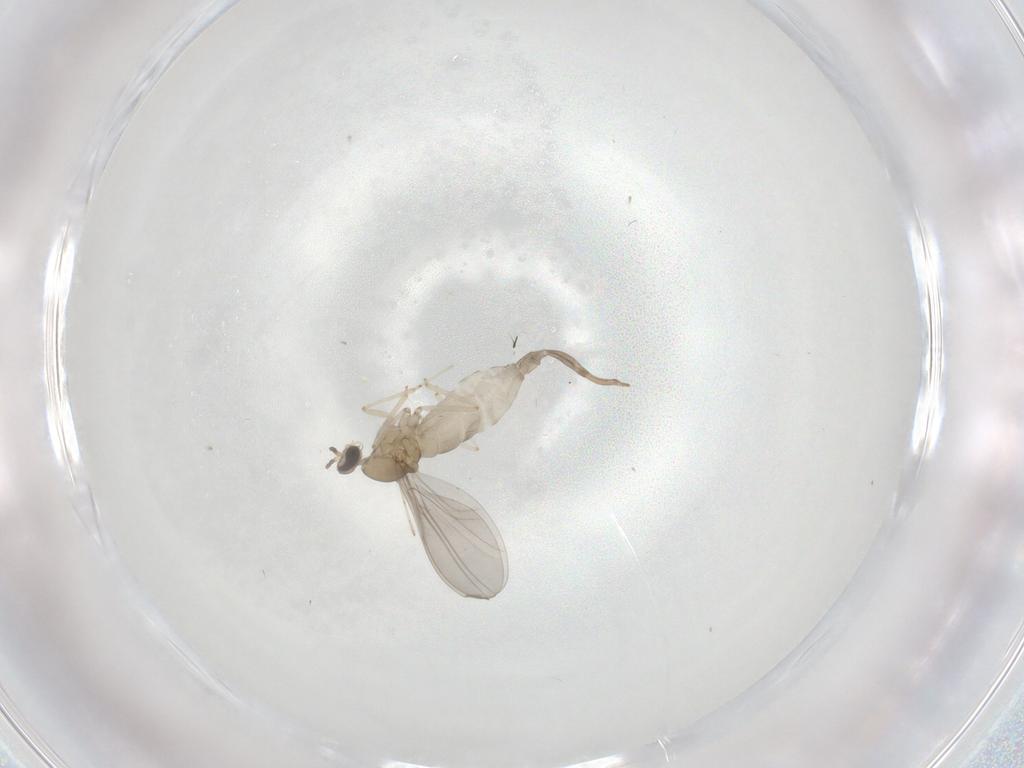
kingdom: Animalia
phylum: Arthropoda
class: Insecta
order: Diptera
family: Cecidomyiidae
